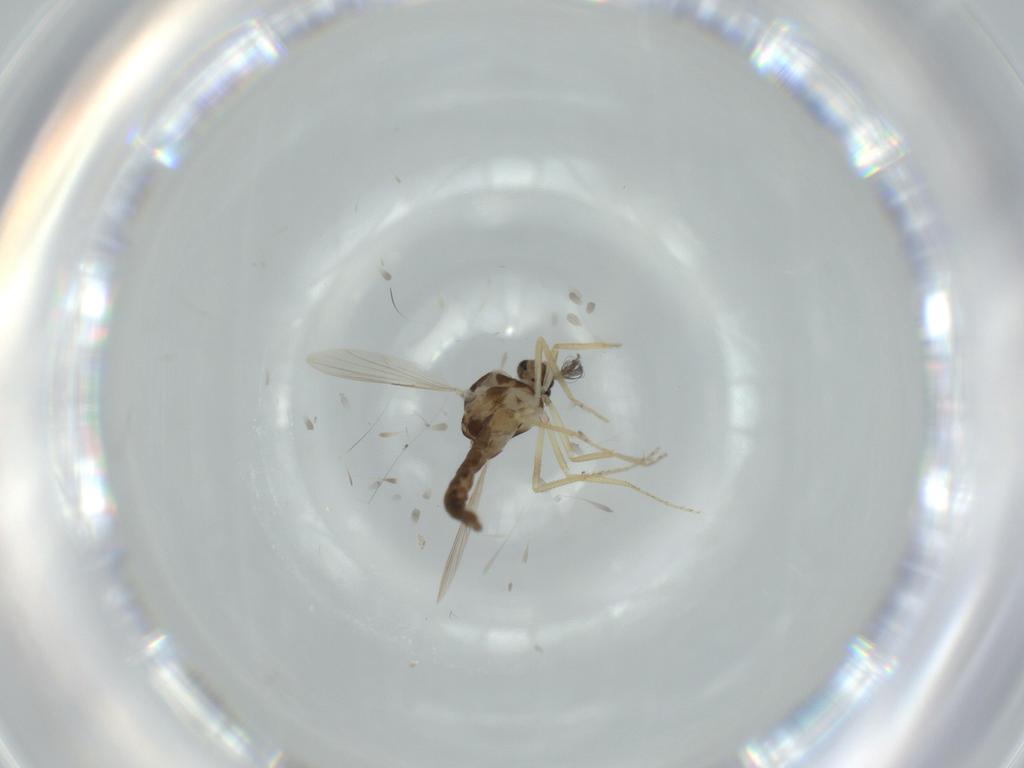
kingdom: Animalia
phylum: Arthropoda
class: Insecta
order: Diptera
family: Ceratopogonidae
